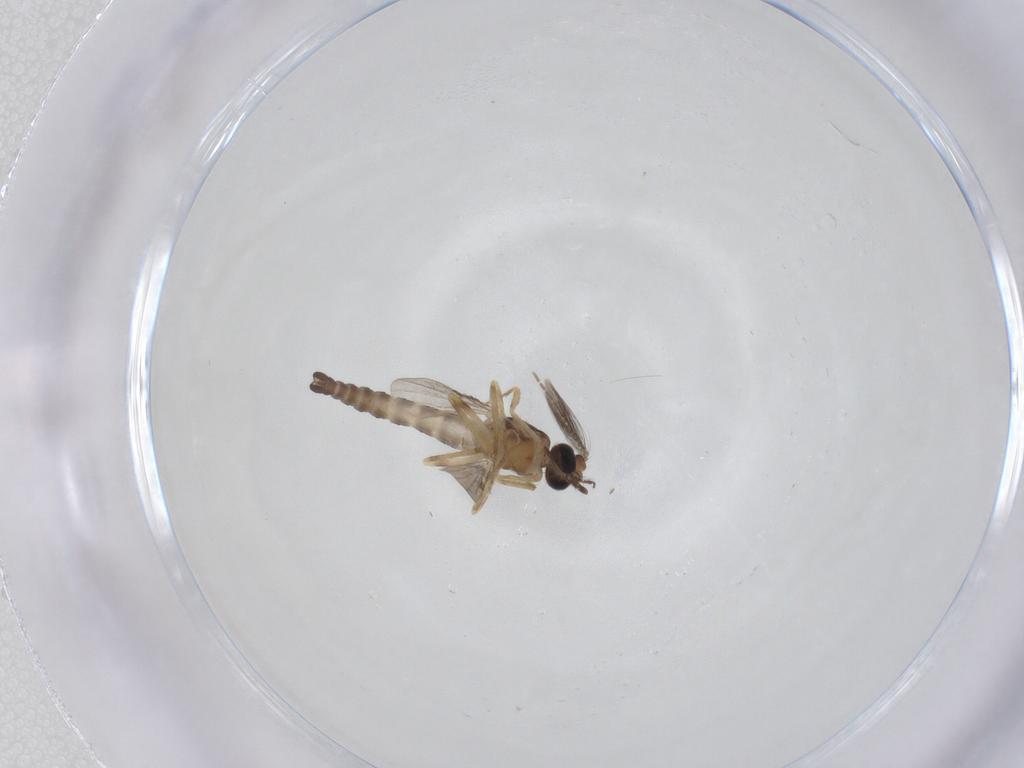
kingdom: Animalia
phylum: Arthropoda
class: Insecta
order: Diptera
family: Ceratopogonidae
